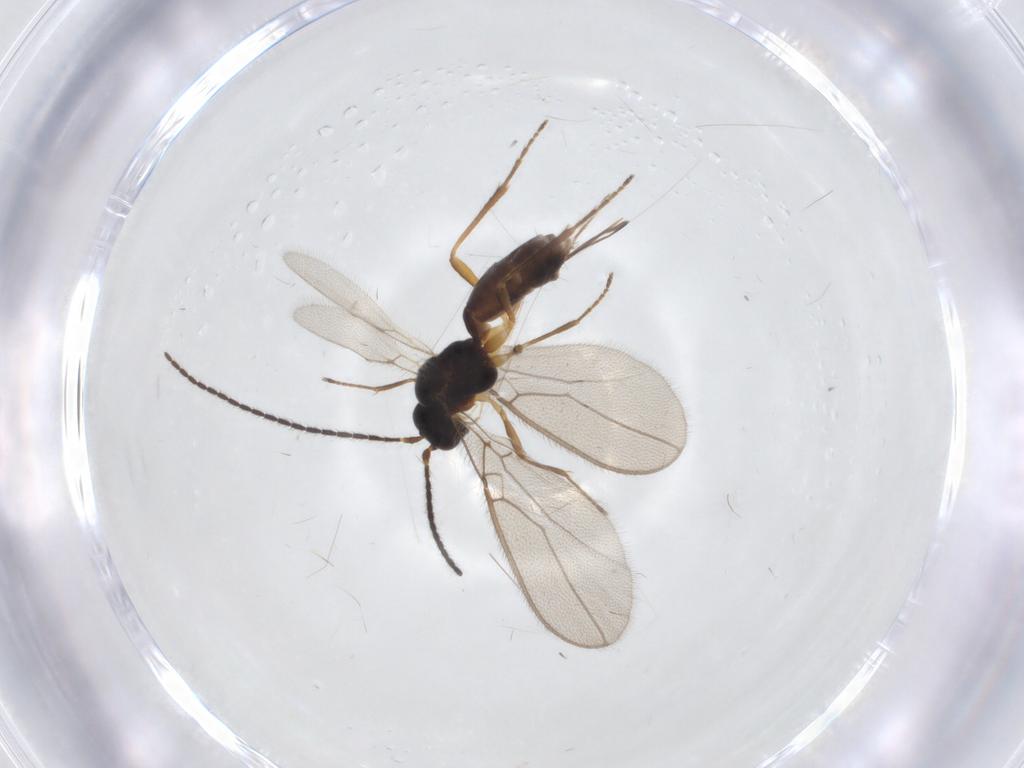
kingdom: Animalia
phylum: Arthropoda
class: Insecta
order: Hymenoptera
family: Braconidae
